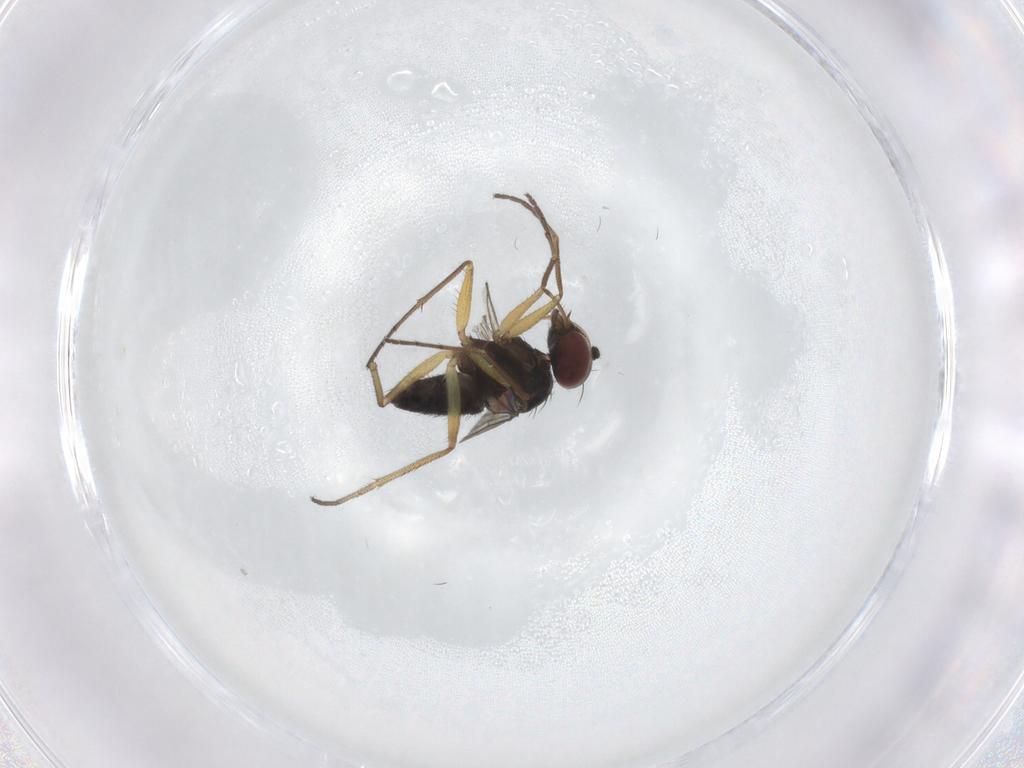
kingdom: Animalia
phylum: Arthropoda
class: Insecta
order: Diptera
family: Dolichopodidae
